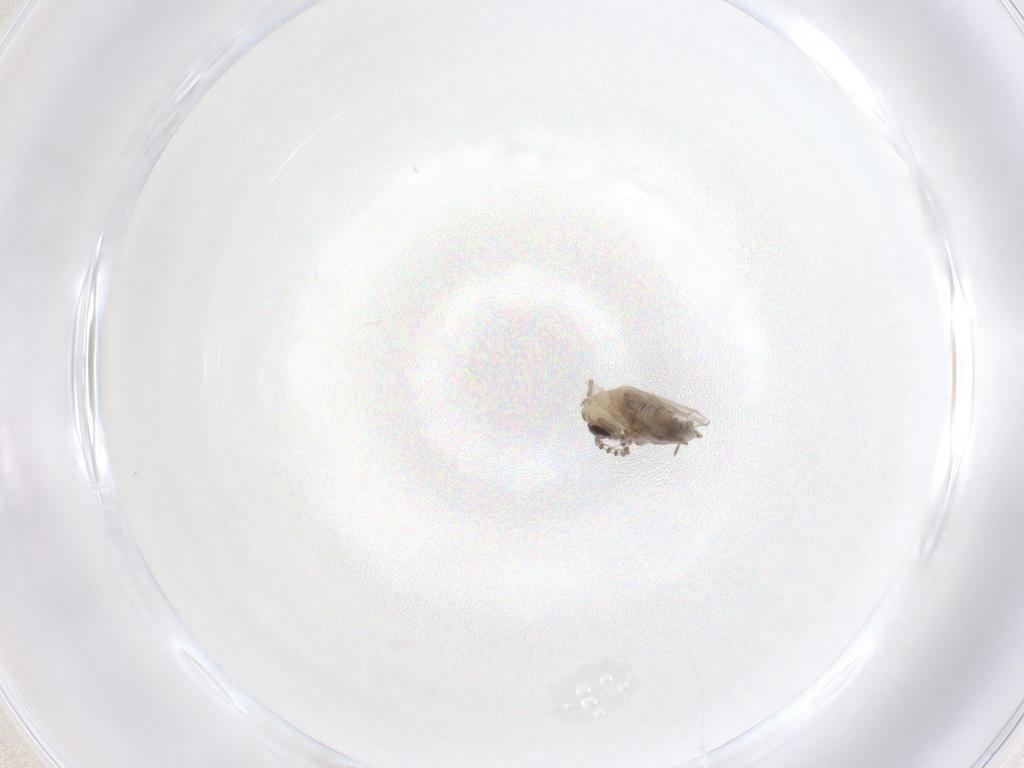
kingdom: Animalia
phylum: Arthropoda
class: Insecta
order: Diptera
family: Psychodidae
